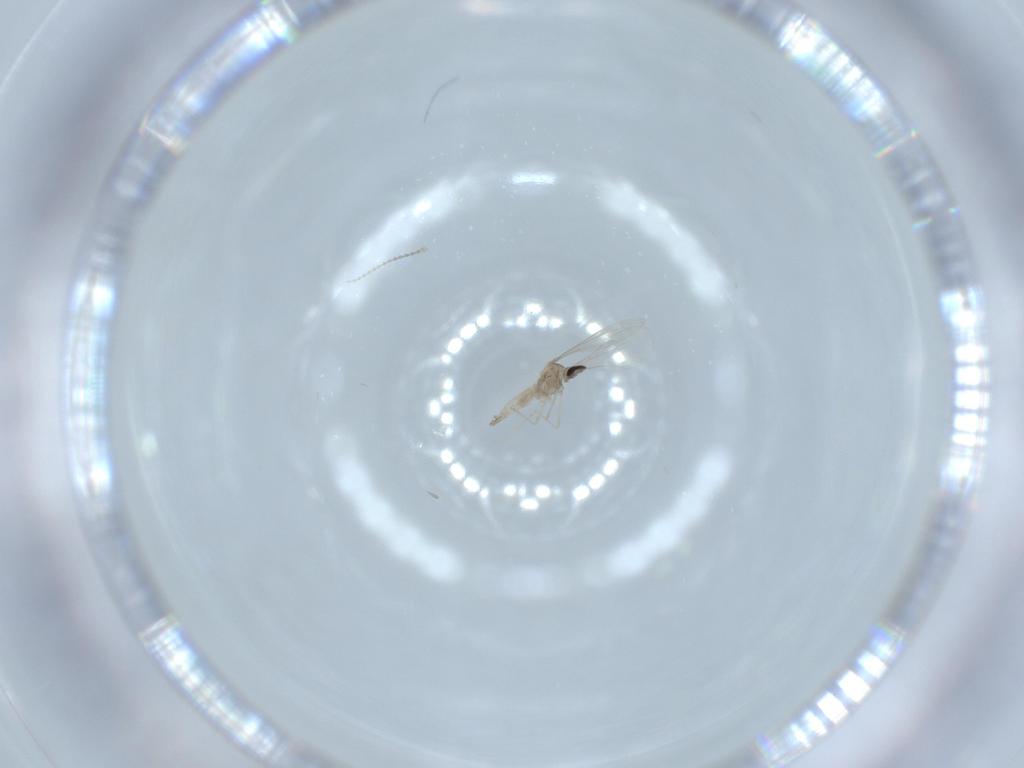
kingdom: Animalia
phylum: Arthropoda
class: Insecta
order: Diptera
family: Cecidomyiidae
